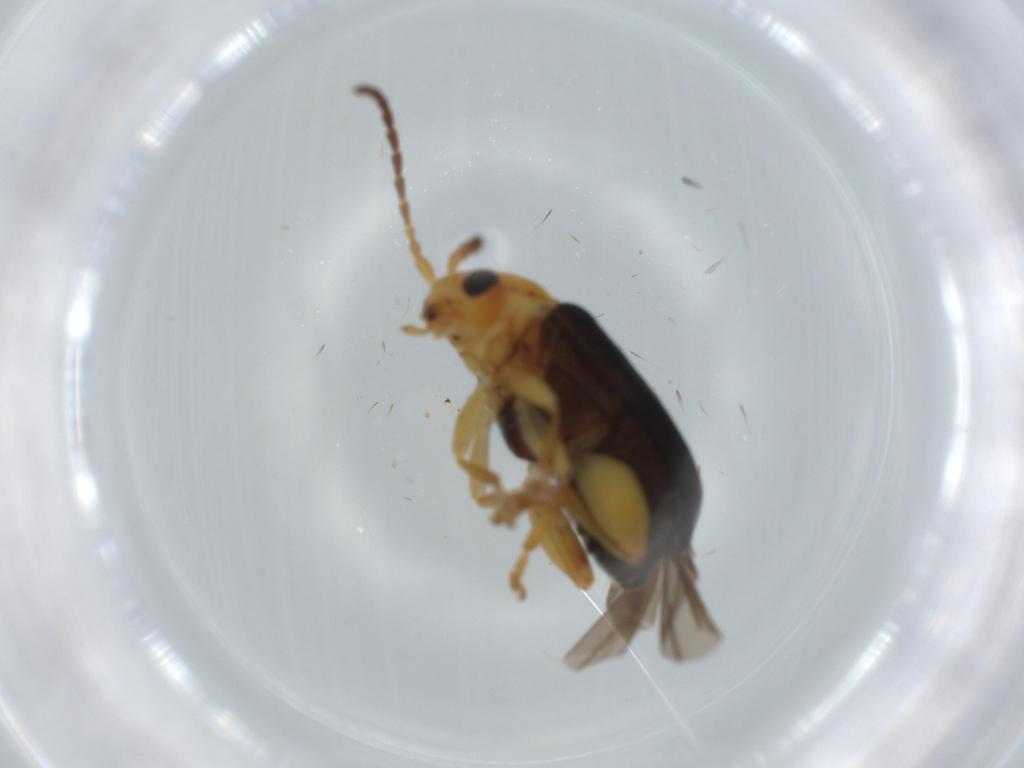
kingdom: Animalia
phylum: Arthropoda
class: Insecta
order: Coleoptera
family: Chrysomelidae
